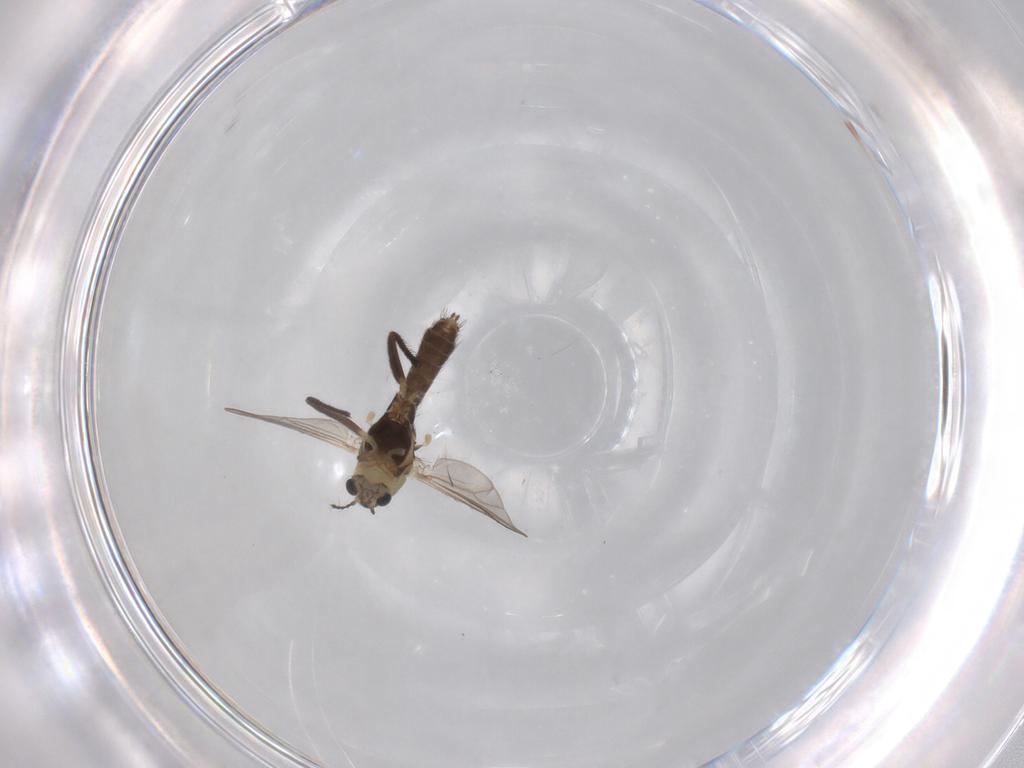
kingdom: Animalia
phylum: Arthropoda
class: Insecta
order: Diptera
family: Chironomidae
